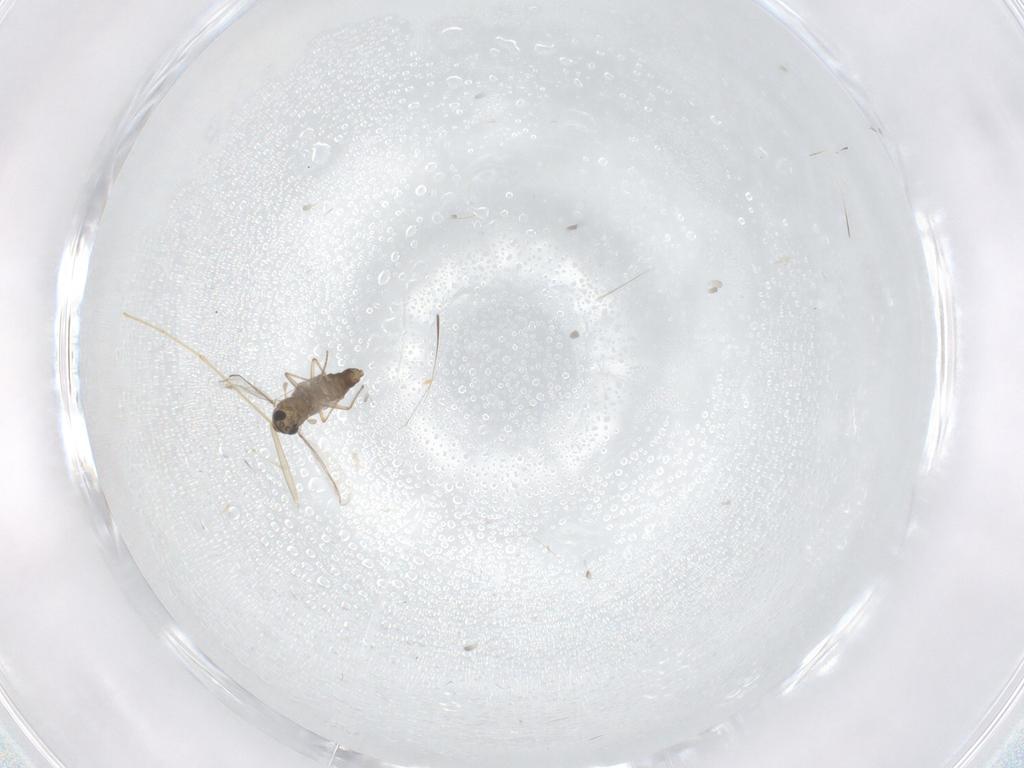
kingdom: Animalia
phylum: Arthropoda
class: Insecta
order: Diptera
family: Chironomidae
